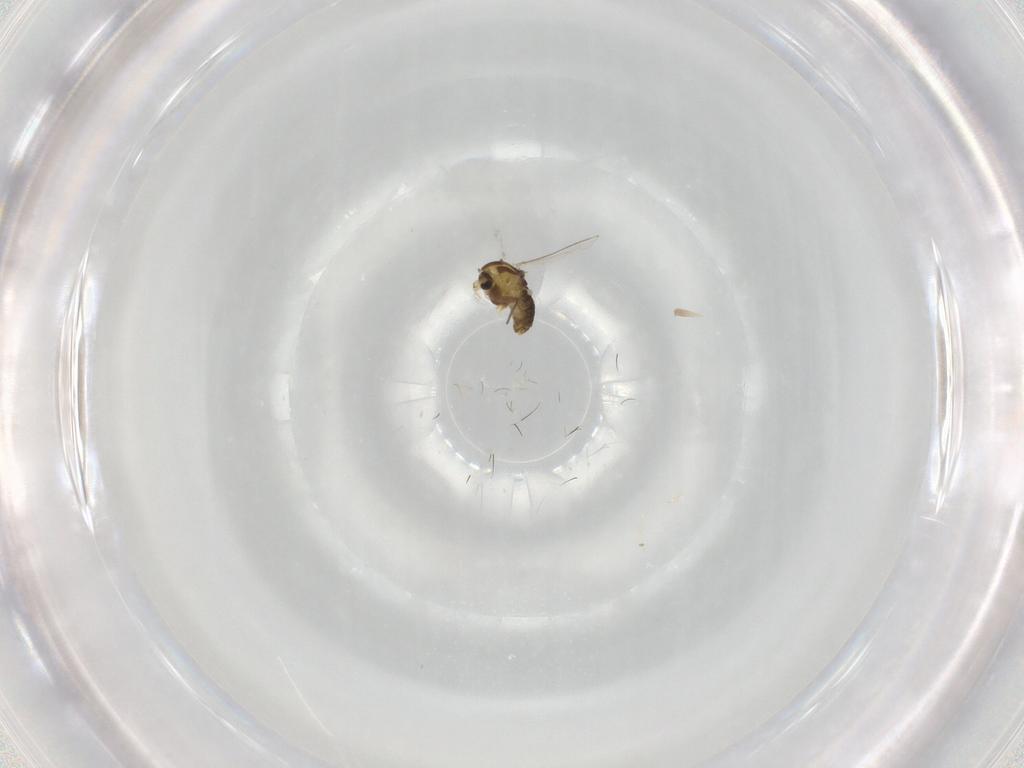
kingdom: Animalia
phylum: Arthropoda
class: Insecta
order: Diptera
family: Chironomidae
